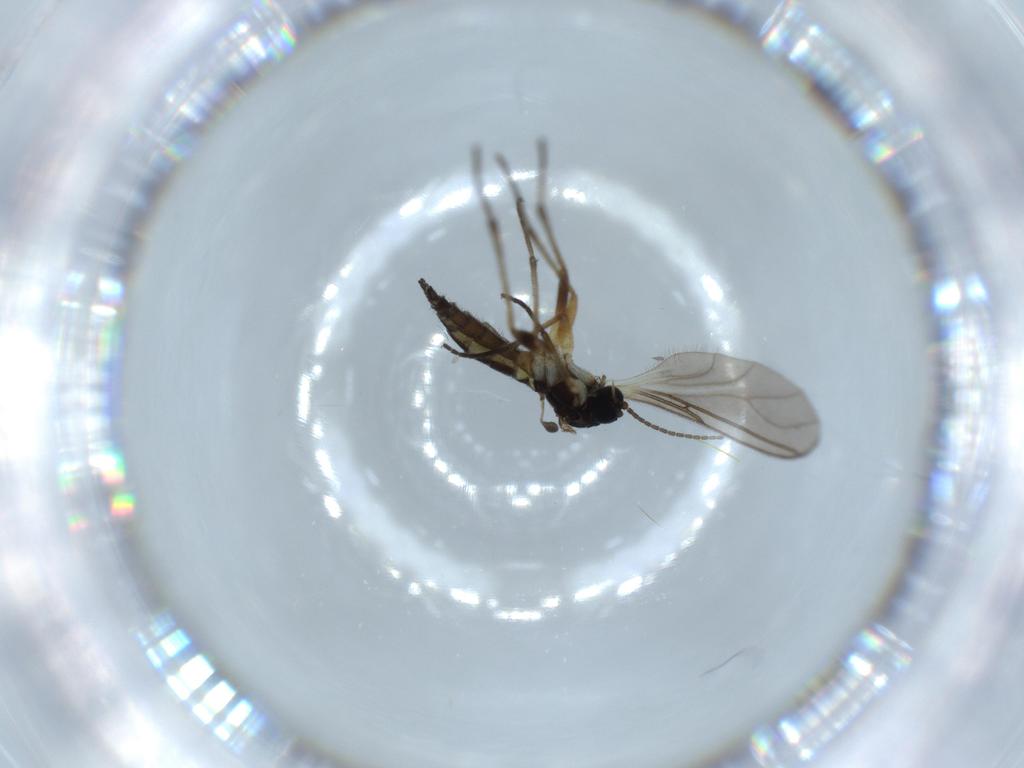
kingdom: Animalia
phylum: Arthropoda
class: Insecta
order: Diptera
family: Sciaridae
